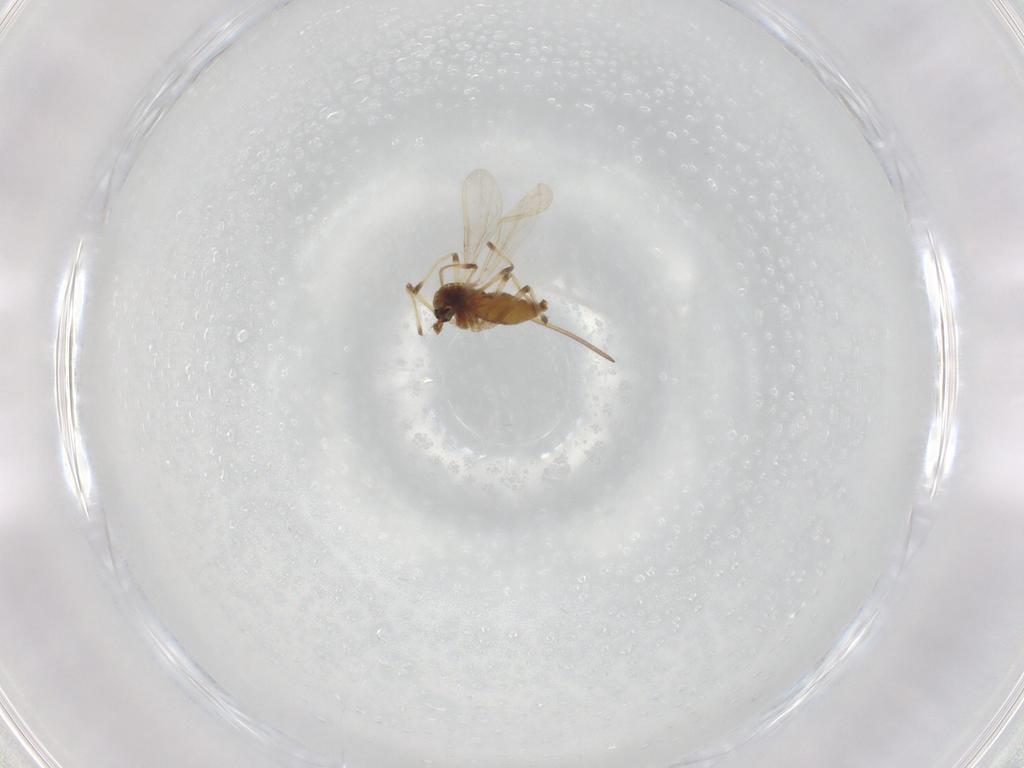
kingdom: Animalia
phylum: Arthropoda
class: Insecta
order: Diptera
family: Chironomidae
